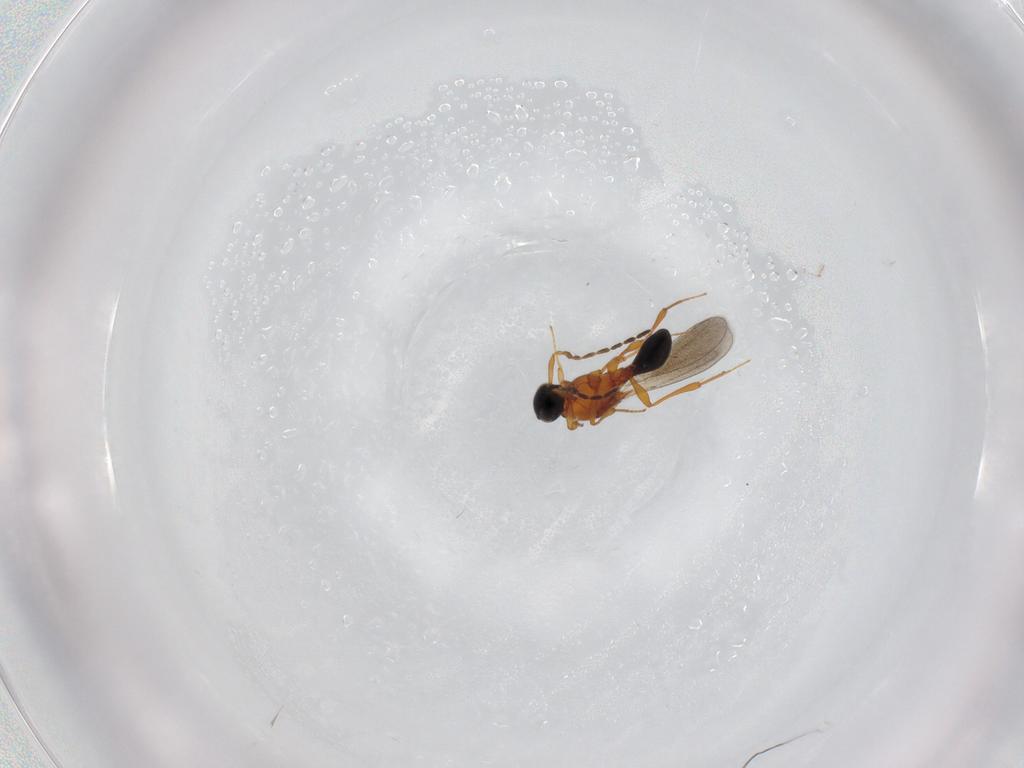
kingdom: Animalia
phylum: Arthropoda
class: Insecta
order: Hymenoptera
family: Platygastridae
